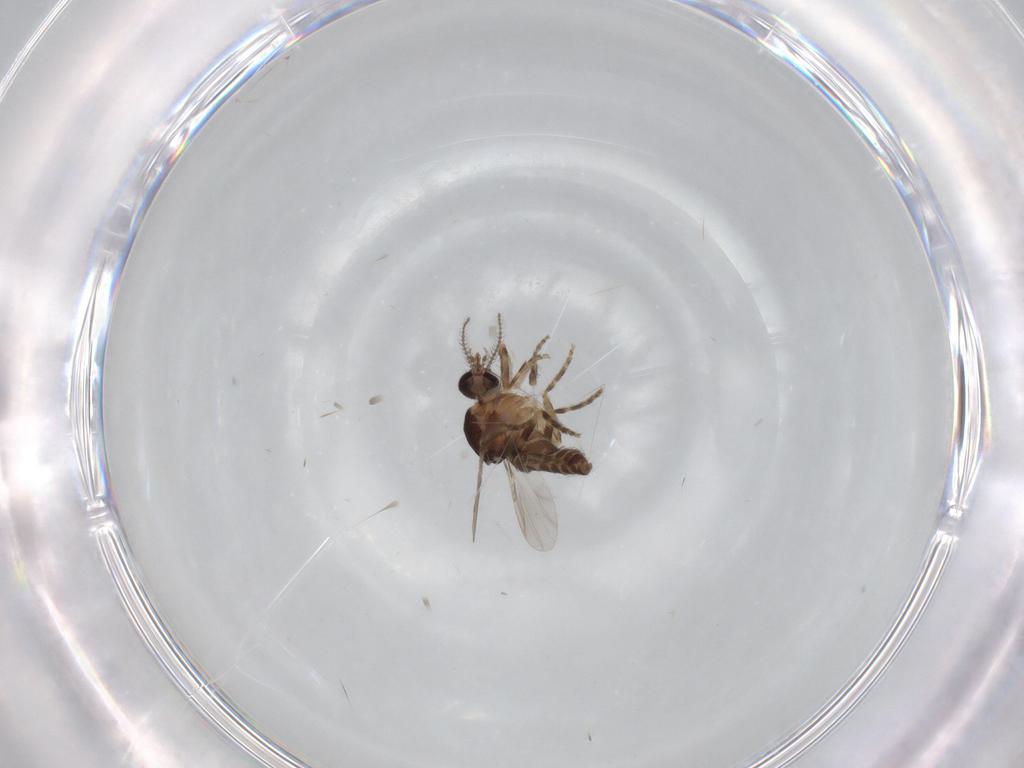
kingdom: Animalia
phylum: Arthropoda
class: Insecta
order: Diptera
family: Ceratopogonidae
